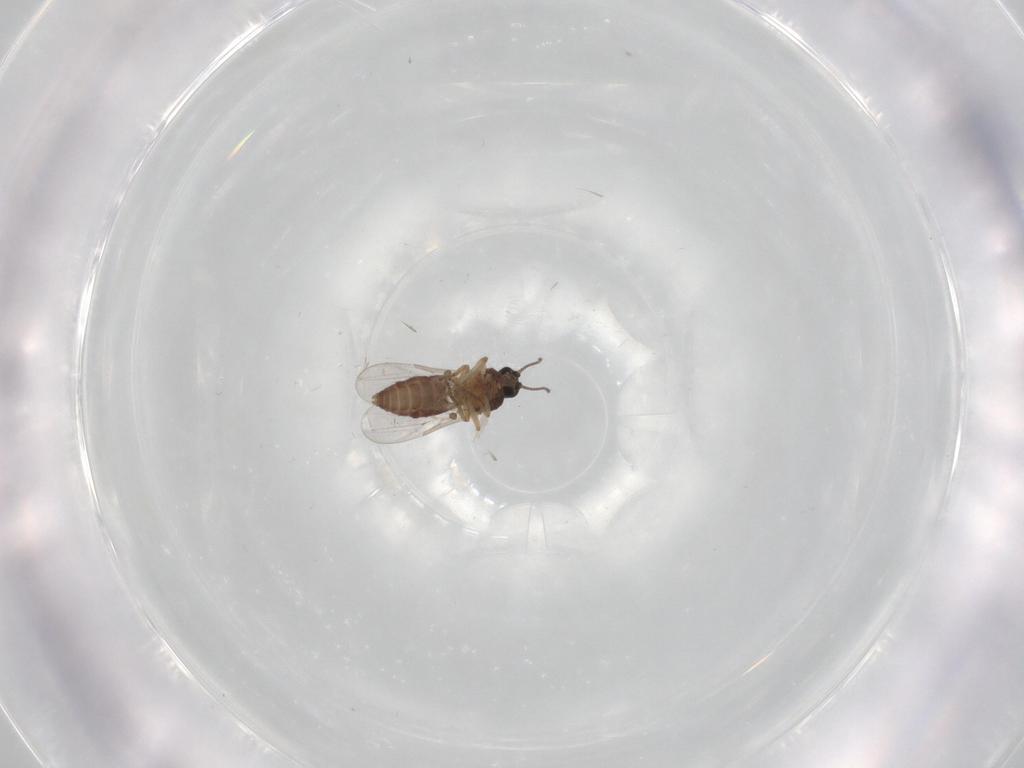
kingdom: Animalia
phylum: Arthropoda
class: Insecta
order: Diptera
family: Ceratopogonidae
